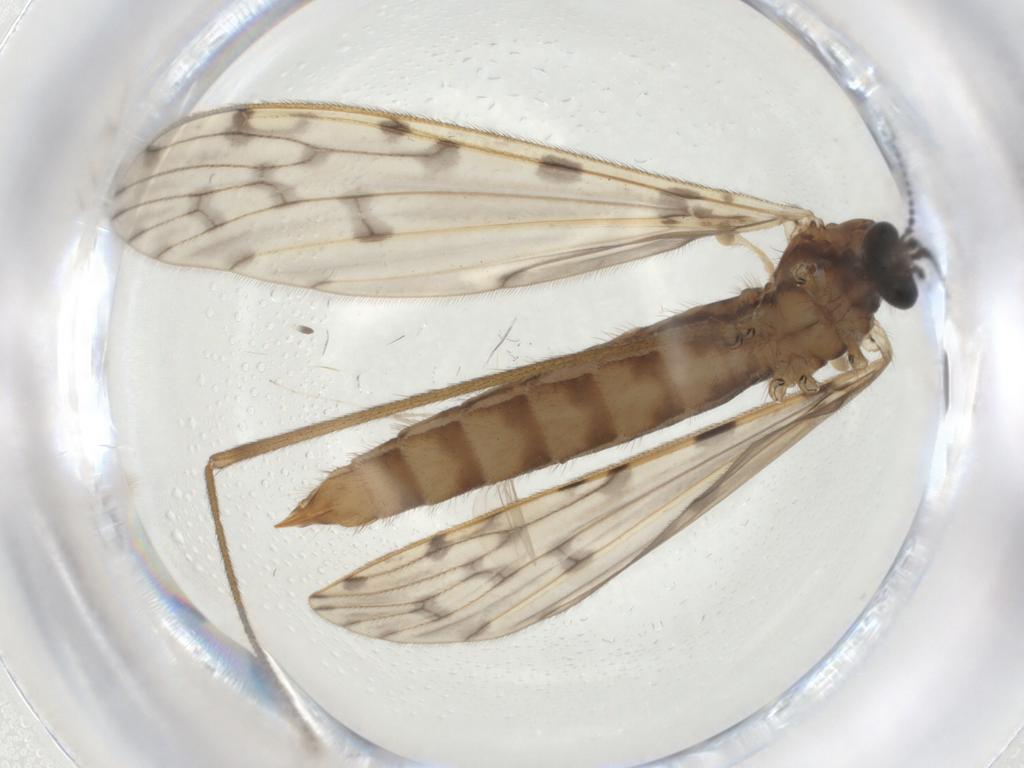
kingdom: Animalia
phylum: Arthropoda
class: Insecta
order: Diptera
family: Limoniidae
